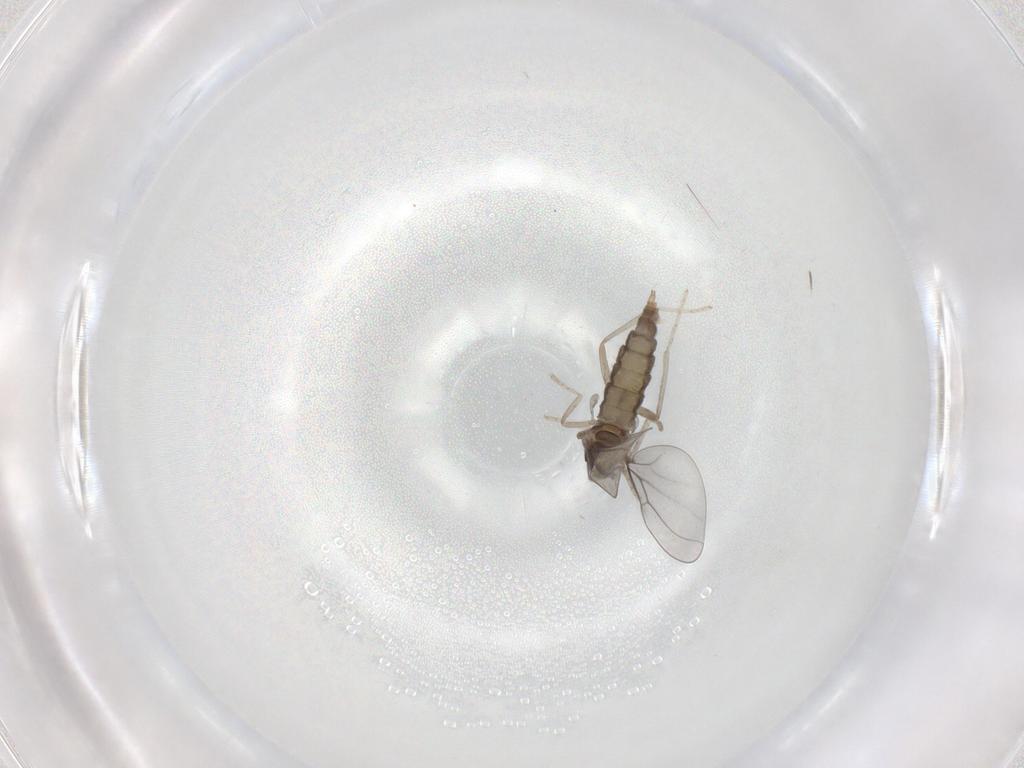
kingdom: Animalia
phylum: Arthropoda
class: Insecta
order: Diptera
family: Cecidomyiidae
